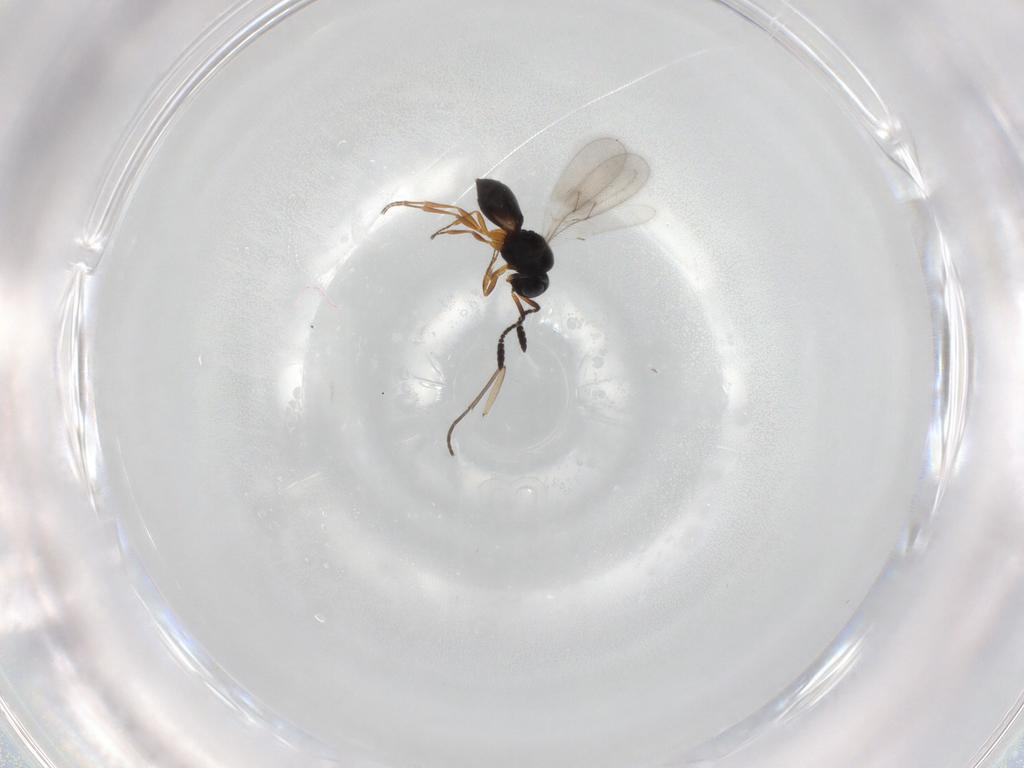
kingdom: Animalia
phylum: Arthropoda
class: Insecta
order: Hymenoptera
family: Scelionidae
